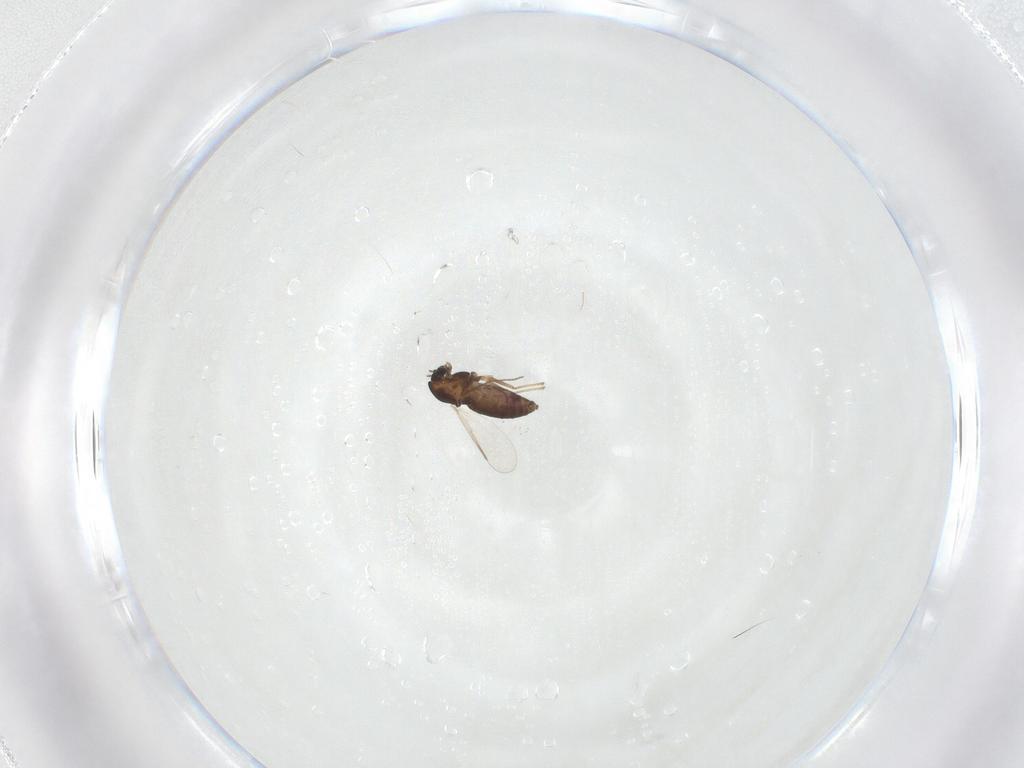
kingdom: Animalia
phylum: Arthropoda
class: Insecta
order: Diptera
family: Chironomidae
